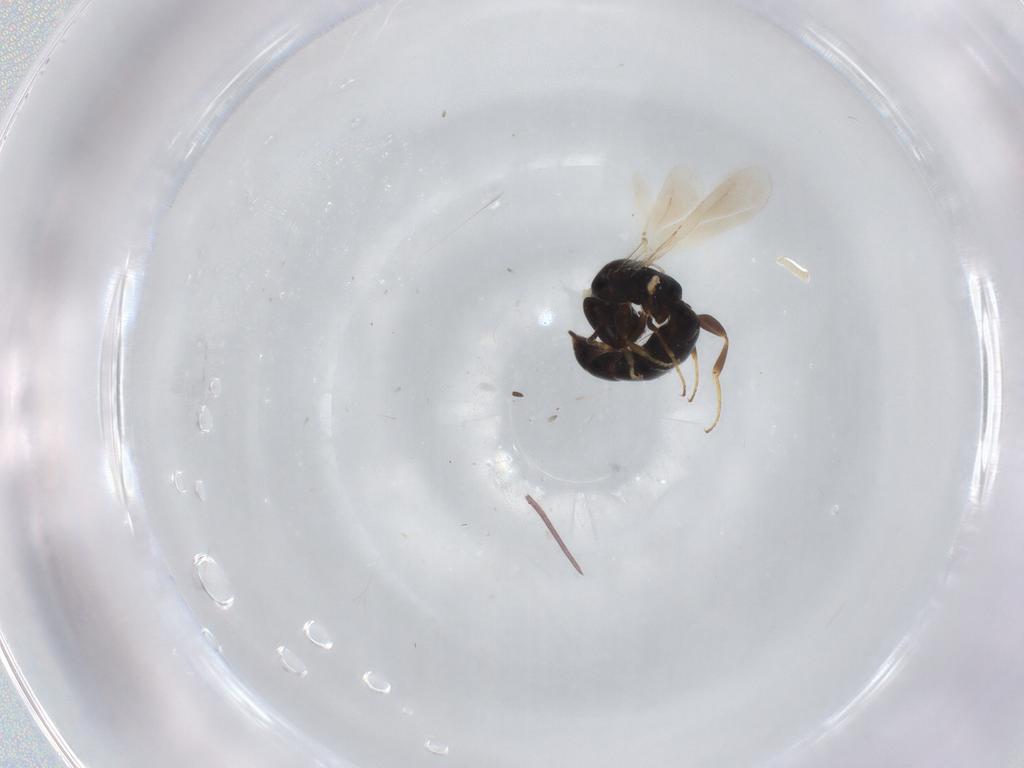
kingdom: Animalia
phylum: Arthropoda
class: Insecta
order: Hymenoptera
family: Bethylidae
